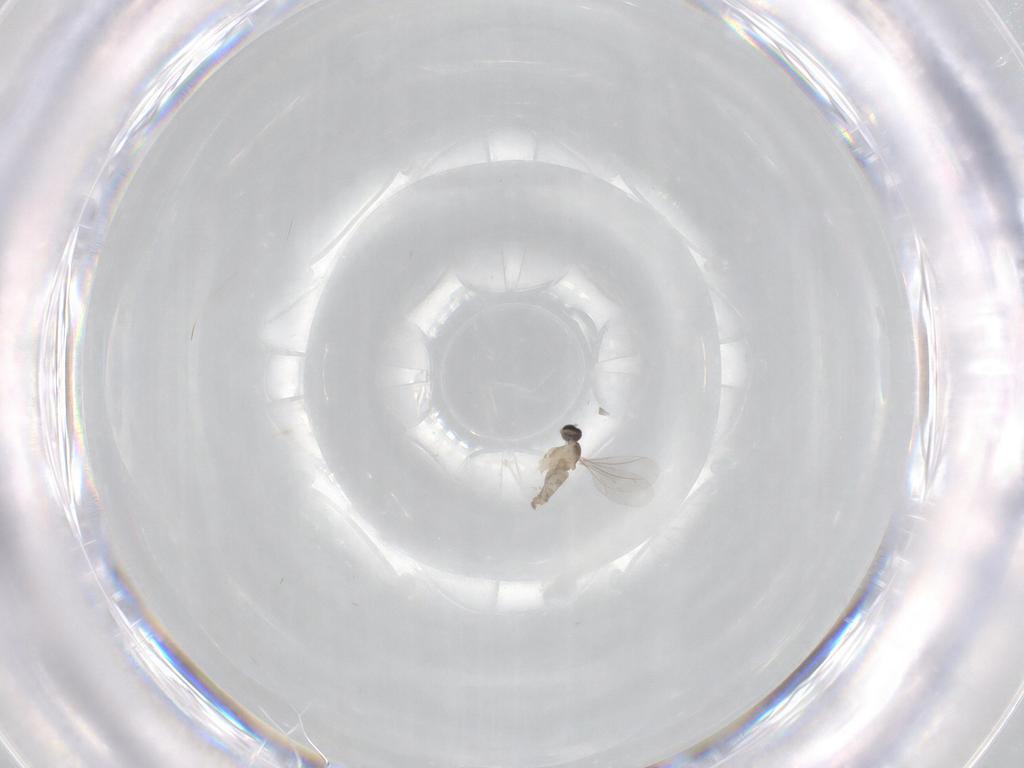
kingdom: Animalia
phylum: Arthropoda
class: Insecta
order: Diptera
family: Cecidomyiidae
